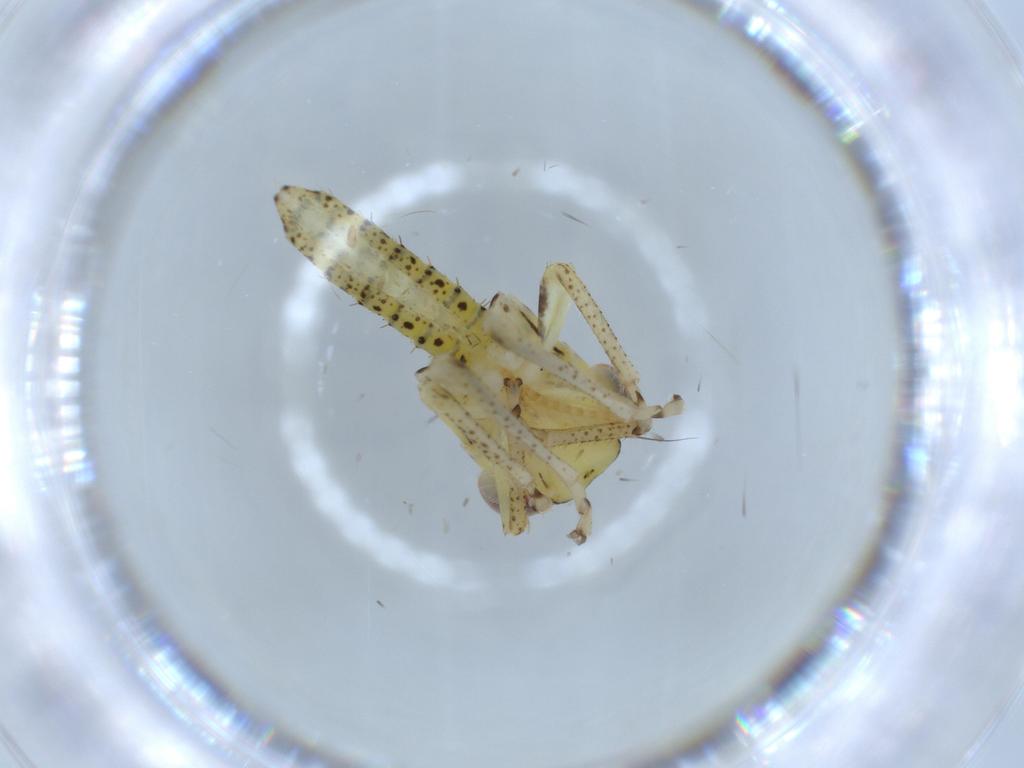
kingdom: Animalia
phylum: Arthropoda
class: Insecta
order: Hemiptera
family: Cicadellidae
